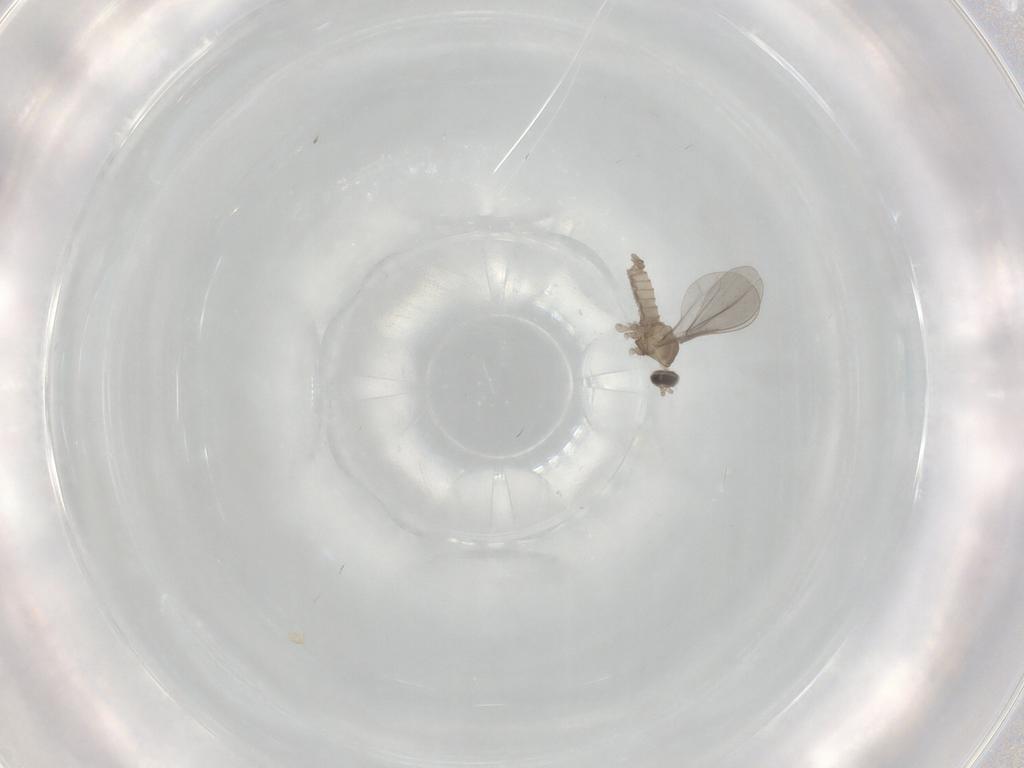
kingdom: Animalia
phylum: Arthropoda
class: Insecta
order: Diptera
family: Cecidomyiidae
